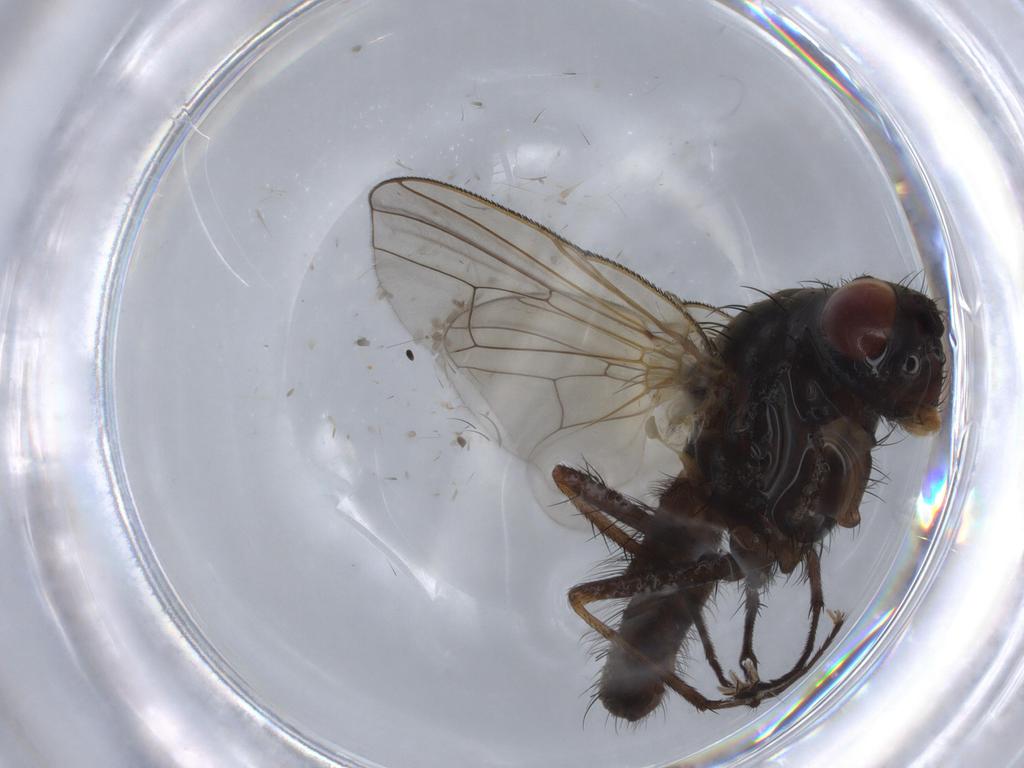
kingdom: Animalia
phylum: Arthropoda
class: Insecta
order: Diptera
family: Anthomyiidae
